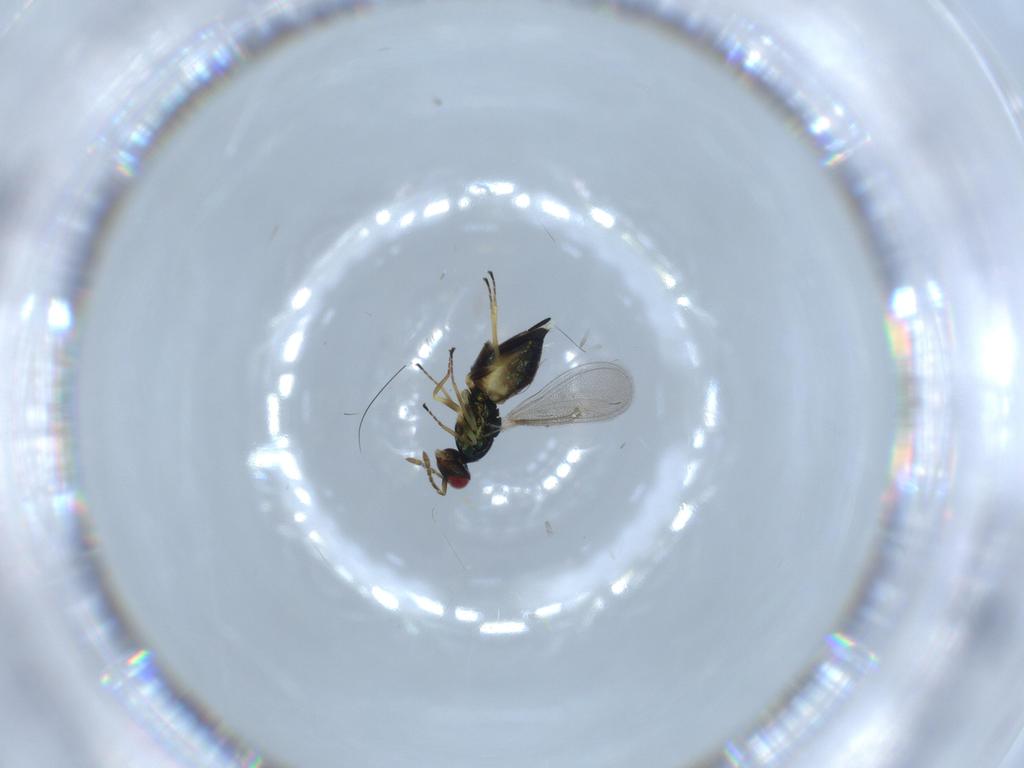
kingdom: Animalia
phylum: Arthropoda
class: Insecta
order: Hymenoptera
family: Eulophidae
